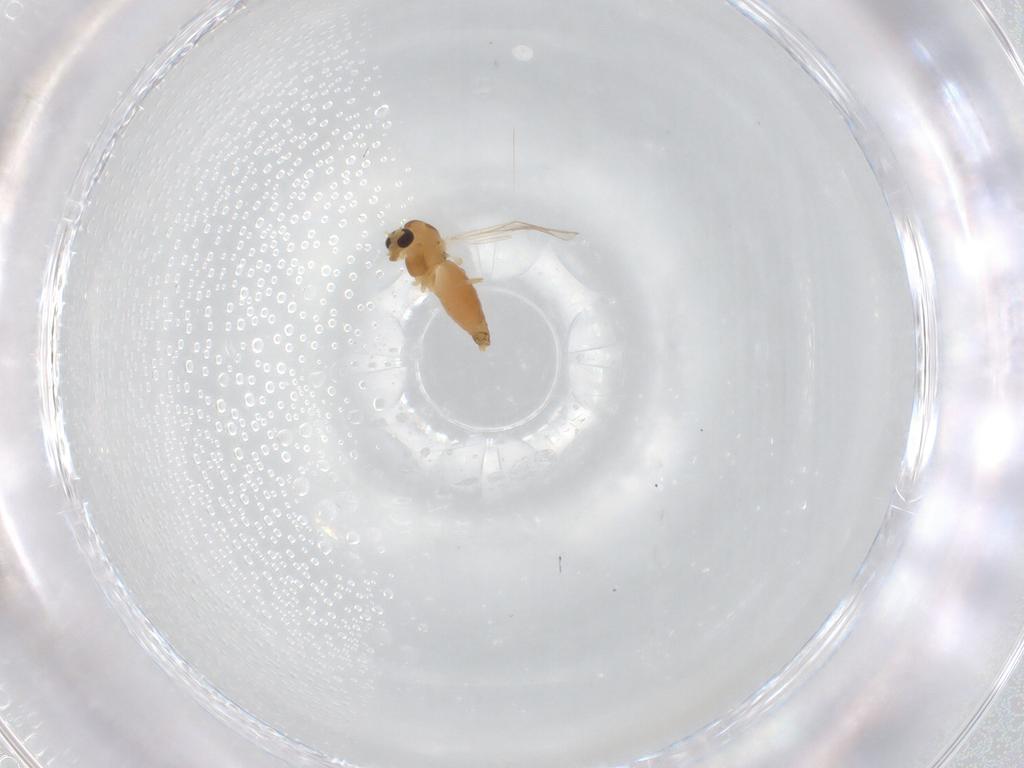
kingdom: Animalia
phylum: Arthropoda
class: Insecta
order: Diptera
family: Chironomidae
